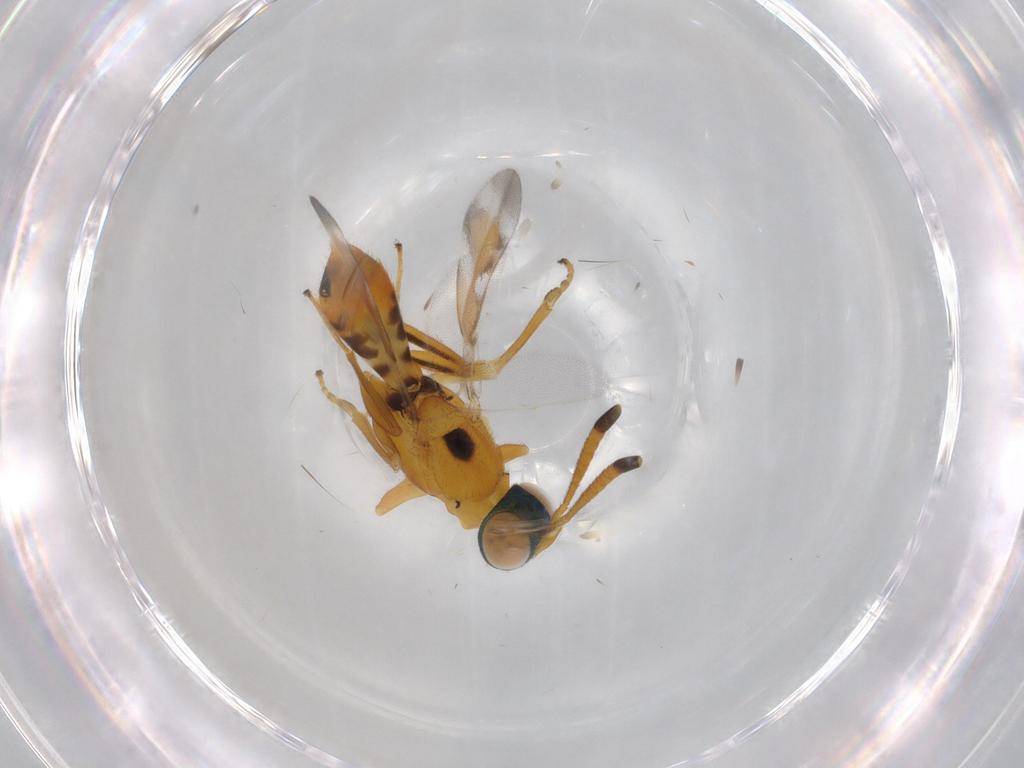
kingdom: Animalia
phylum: Arthropoda
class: Insecta
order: Hymenoptera
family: Eupelmidae
